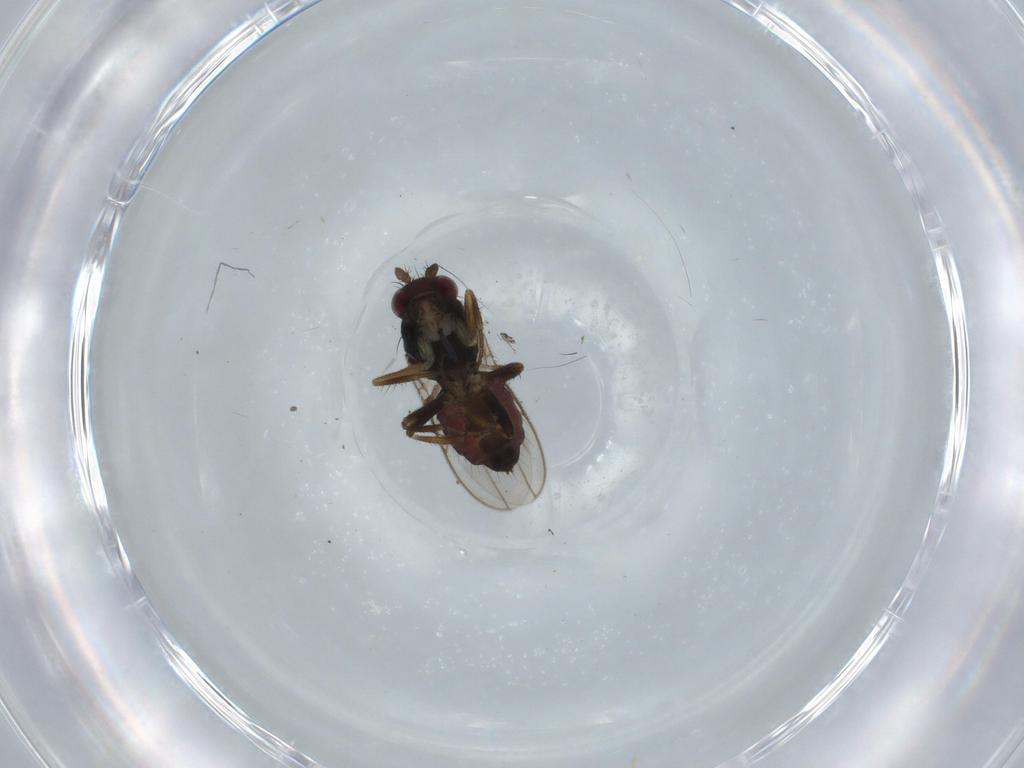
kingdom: Animalia
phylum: Arthropoda
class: Insecta
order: Diptera
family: Sphaeroceridae
